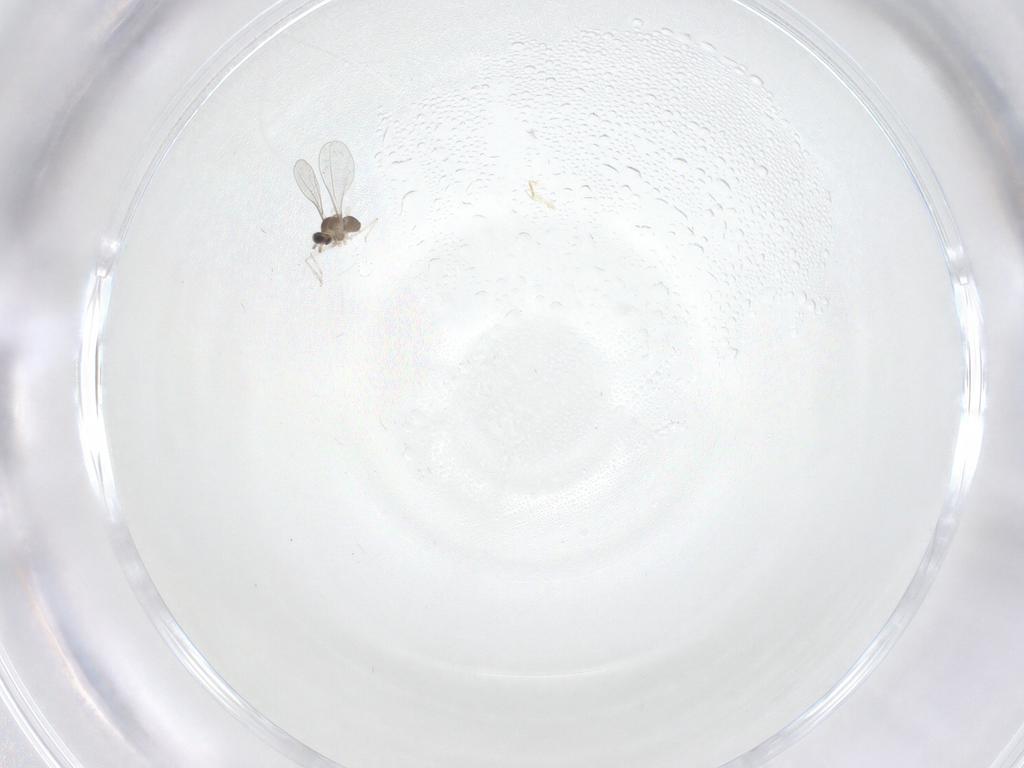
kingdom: Animalia
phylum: Arthropoda
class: Insecta
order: Diptera
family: Cecidomyiidae
